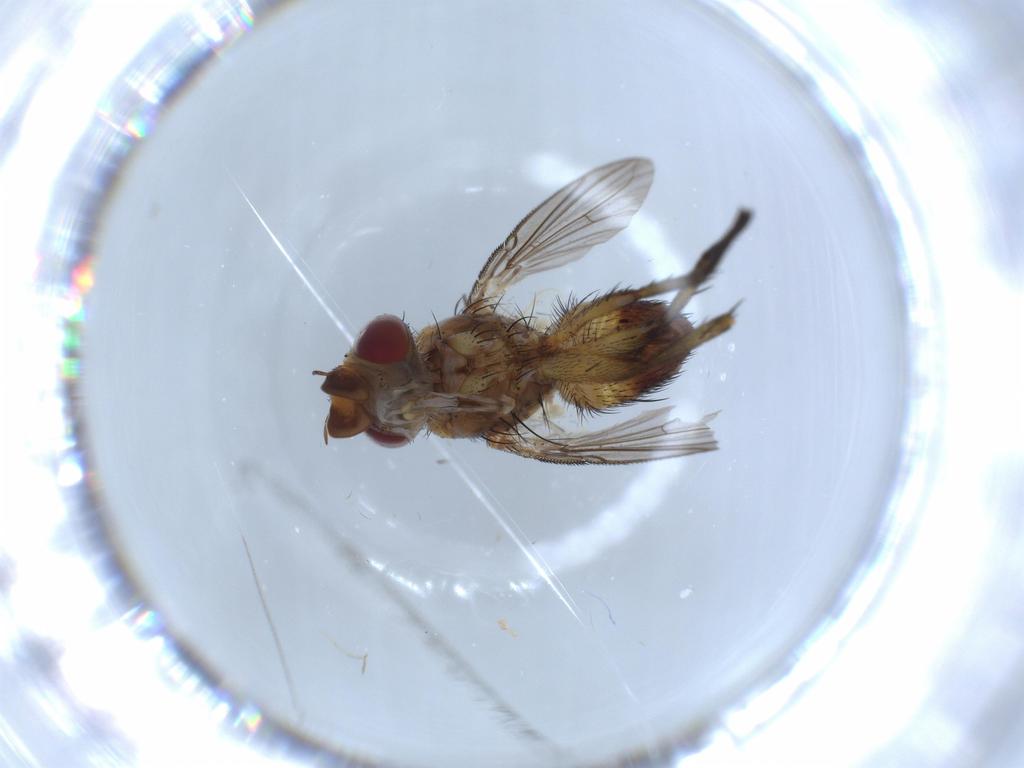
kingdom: Animalia
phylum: Arthropoda
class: Insecta
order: Diptera
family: Tachinidae
